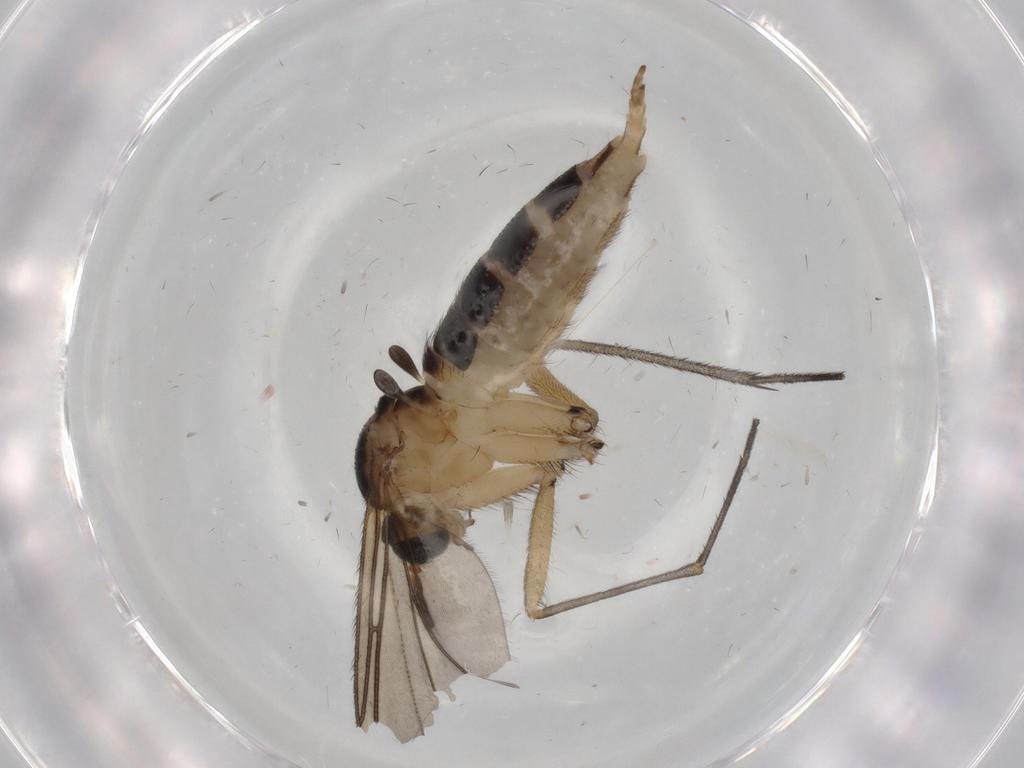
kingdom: Animalia
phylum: Arthropoda
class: Insecta
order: Diptera
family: Sciaridae
